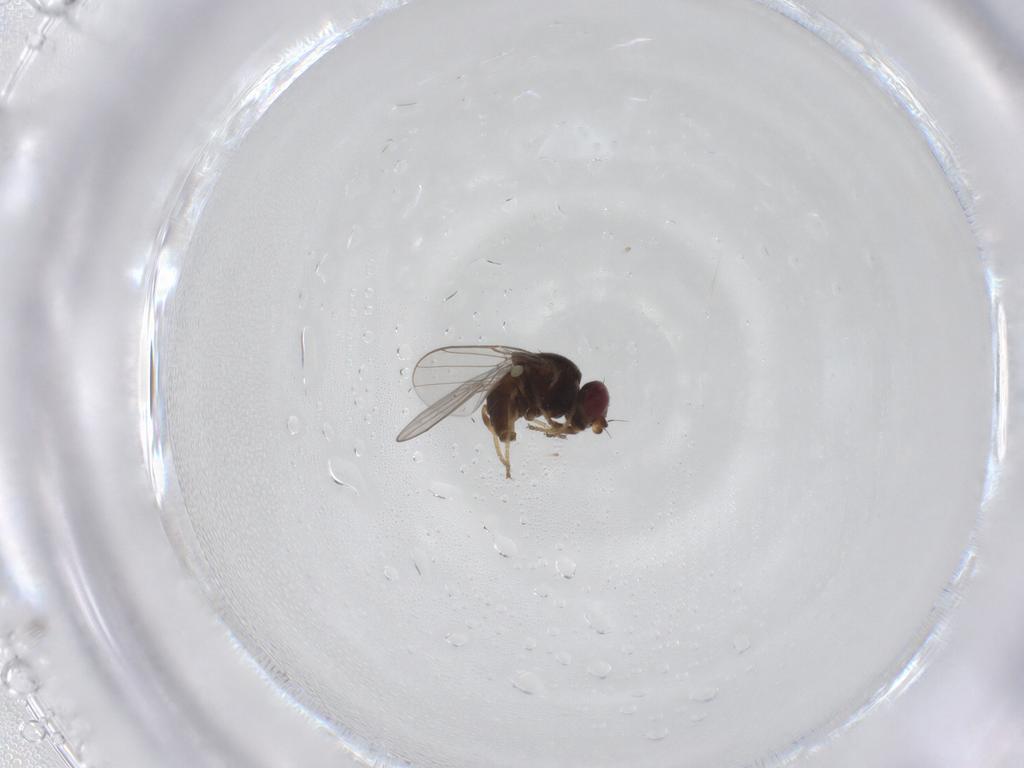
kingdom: Animalia
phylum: Arthropoda
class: Insecta
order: Diptera
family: Chloropidae
